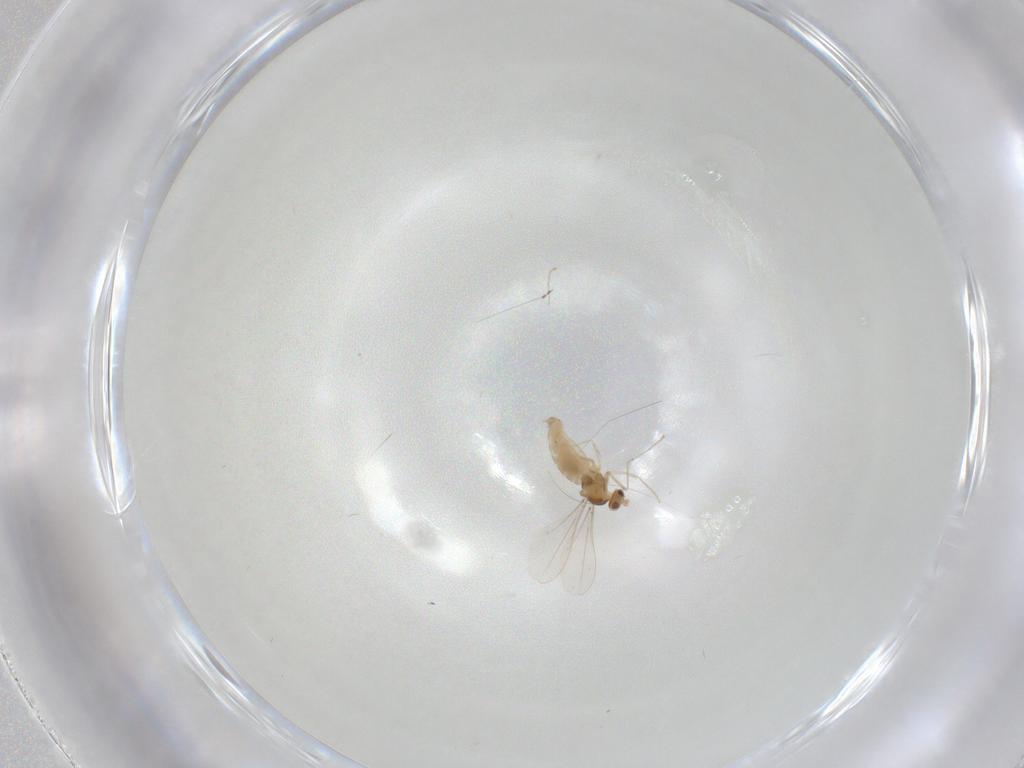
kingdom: Animalia
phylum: Arthropoda
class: Insecta
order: Diptera
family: Cecidomyiidae
